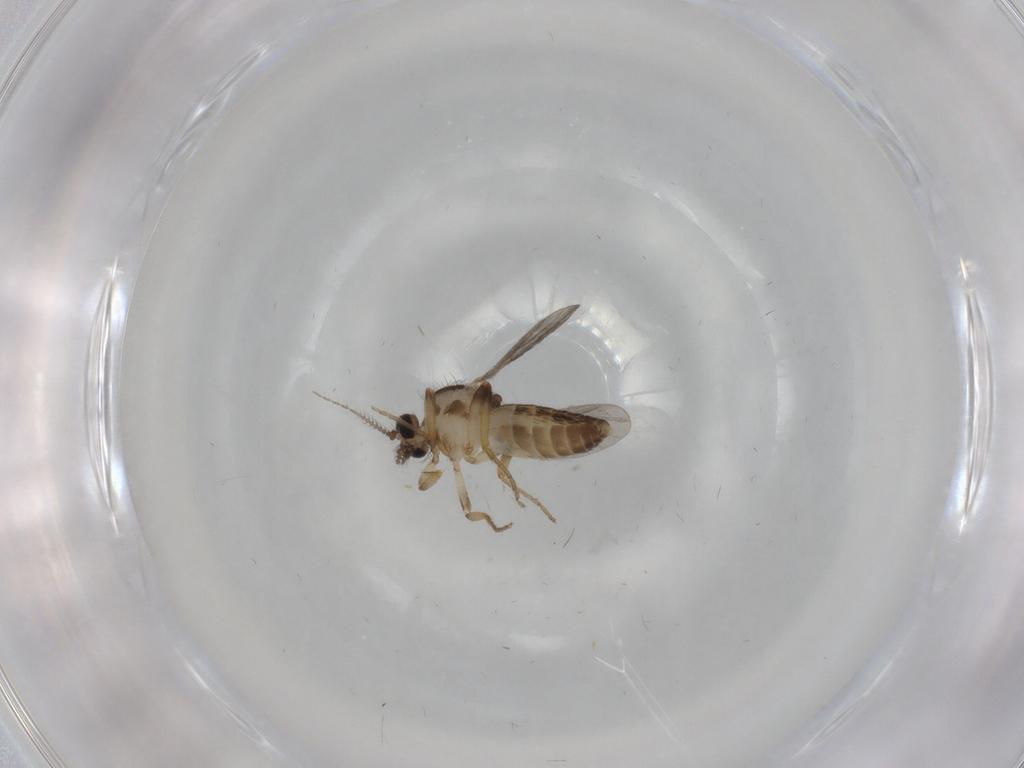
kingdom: Animalia
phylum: Arthropoda
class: Insecta
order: Diptera
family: Ceratopogonidae
